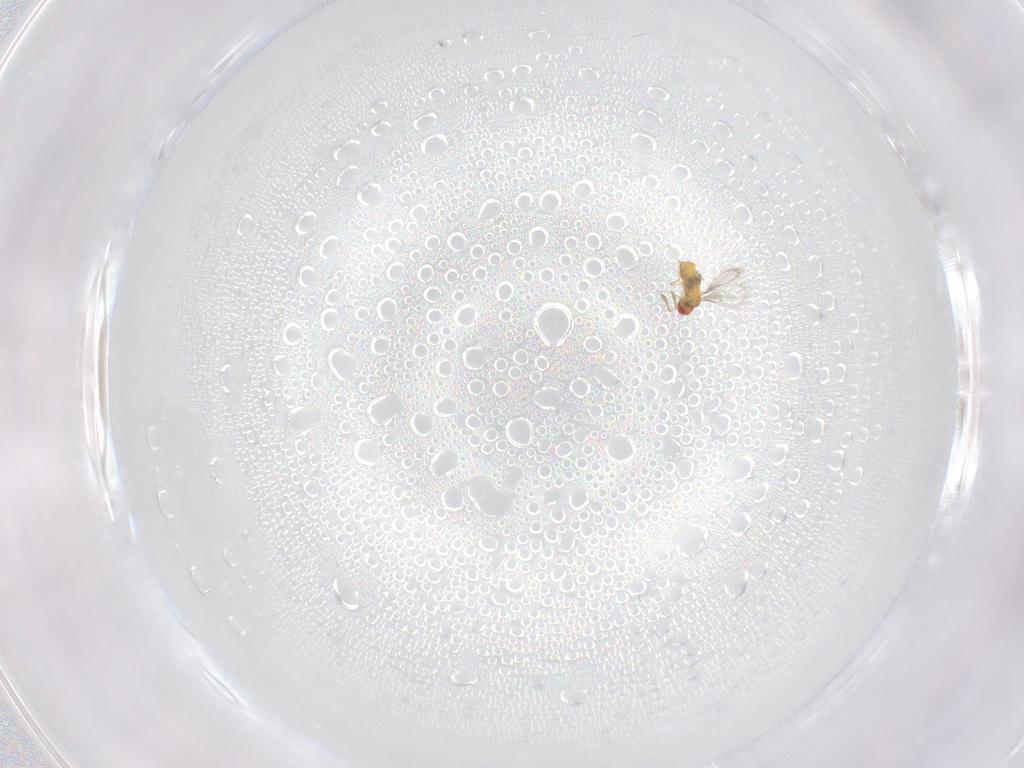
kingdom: Animalia
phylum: Arthropoda
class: Insecta
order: Hymenoptera
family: Trichogrammatidae
